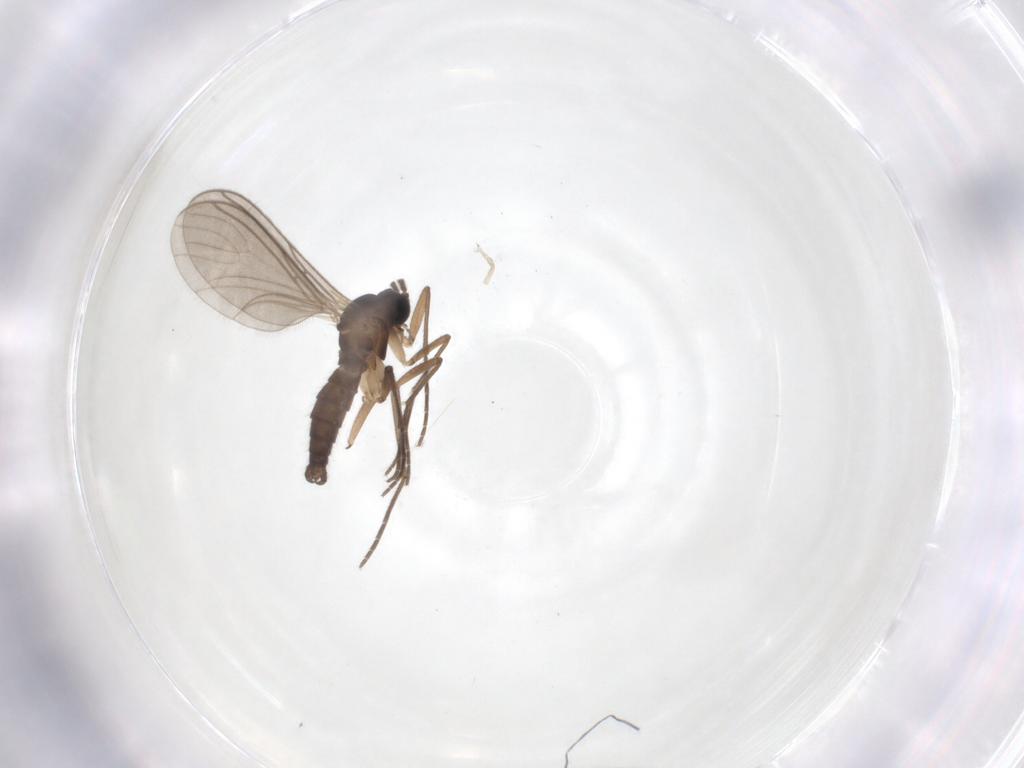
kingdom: Animalia
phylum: Arthropoda
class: Insecta
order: Diptera
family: Sciaridae
